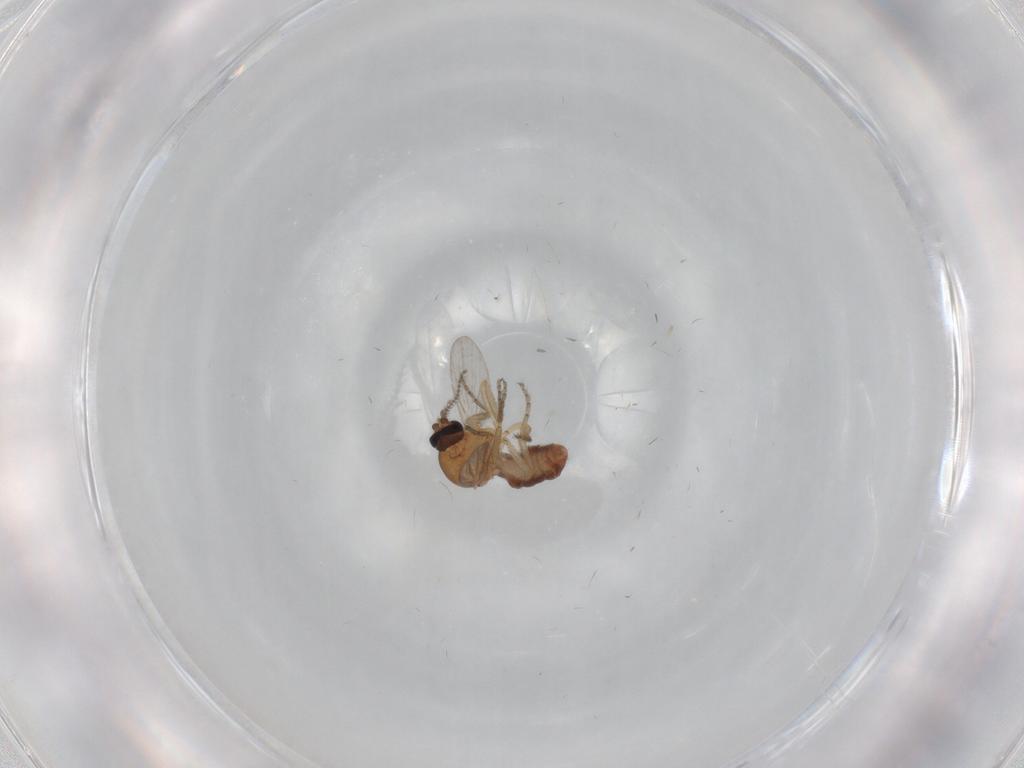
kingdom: Animalia
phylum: Arthropoda
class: Insecta
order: Diptera
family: Ceratopogonidae
